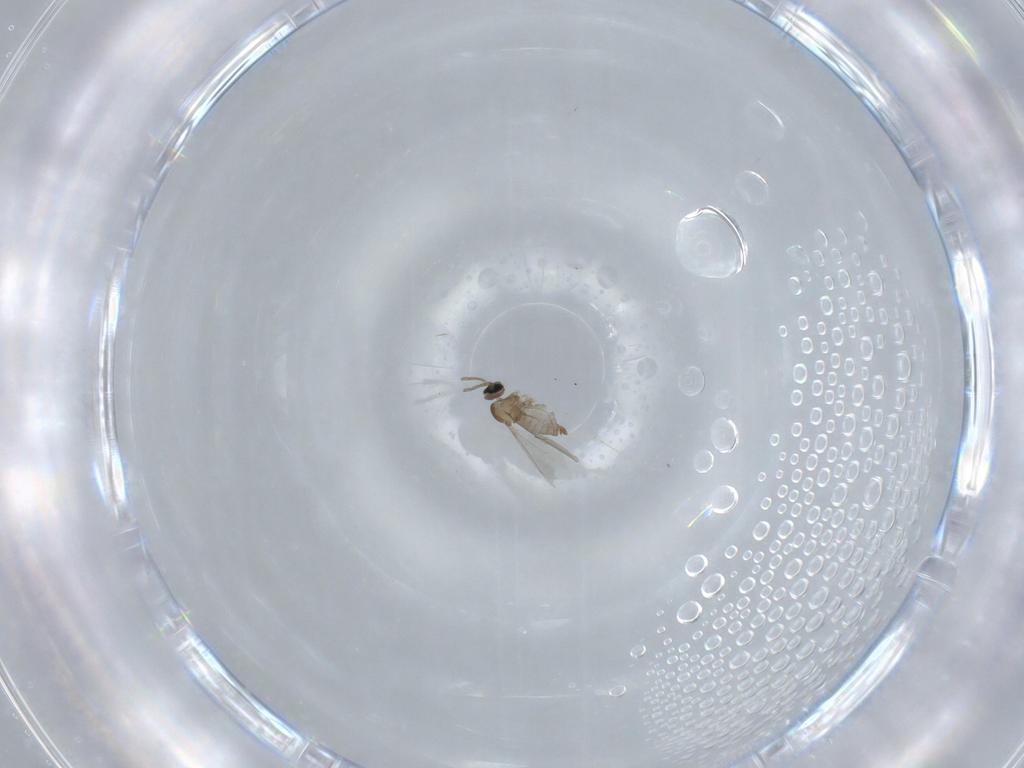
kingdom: Animalia
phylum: Arthropoda
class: Insecta
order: Diptera
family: Cecidomyiidae
